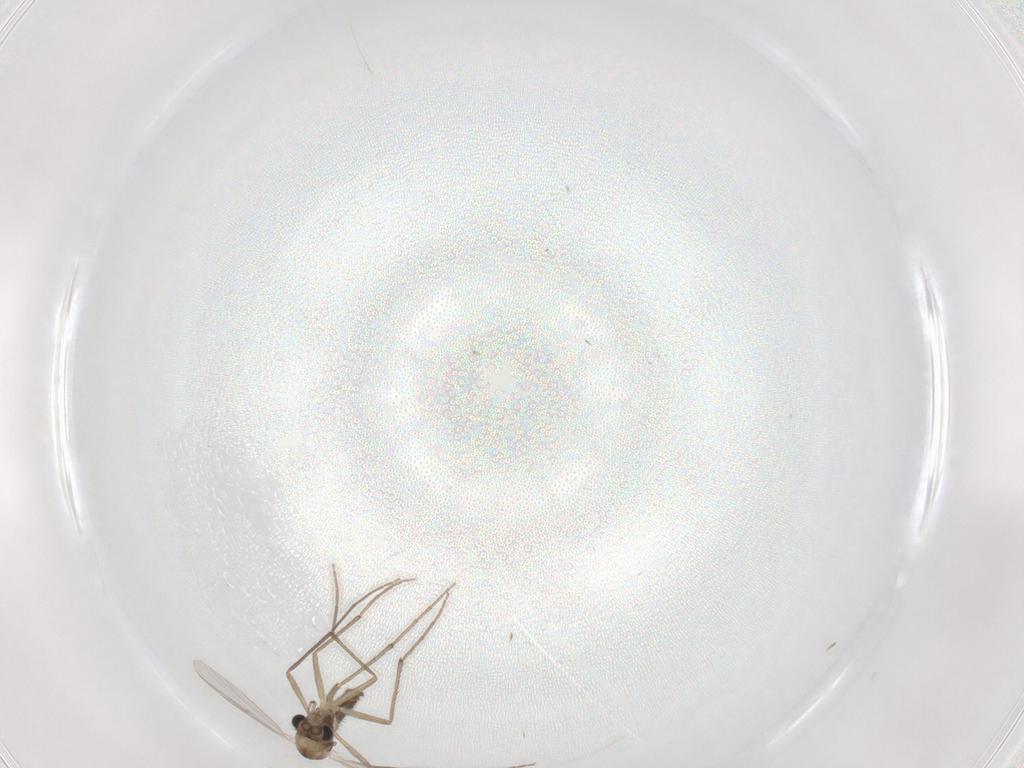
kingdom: Animalia
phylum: Arthropoda
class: Insecta
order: Diptera
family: Chironomidae
